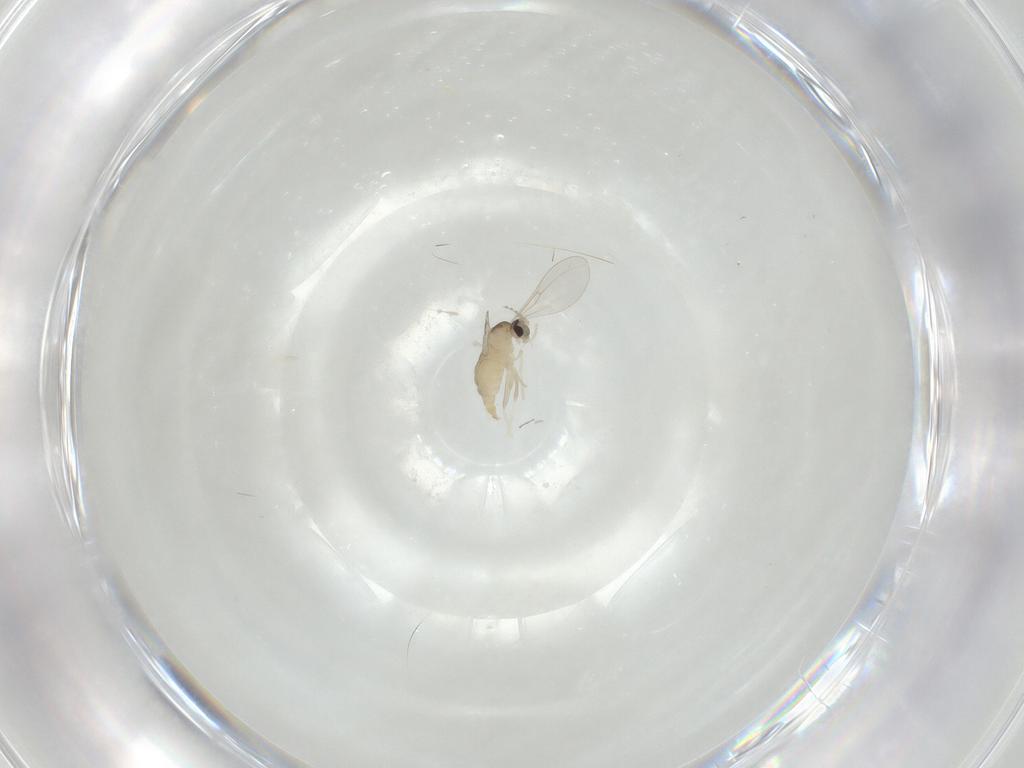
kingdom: Animalia
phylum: Arthropoda
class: Insecta
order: Diptera
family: Cecidomyiidae
